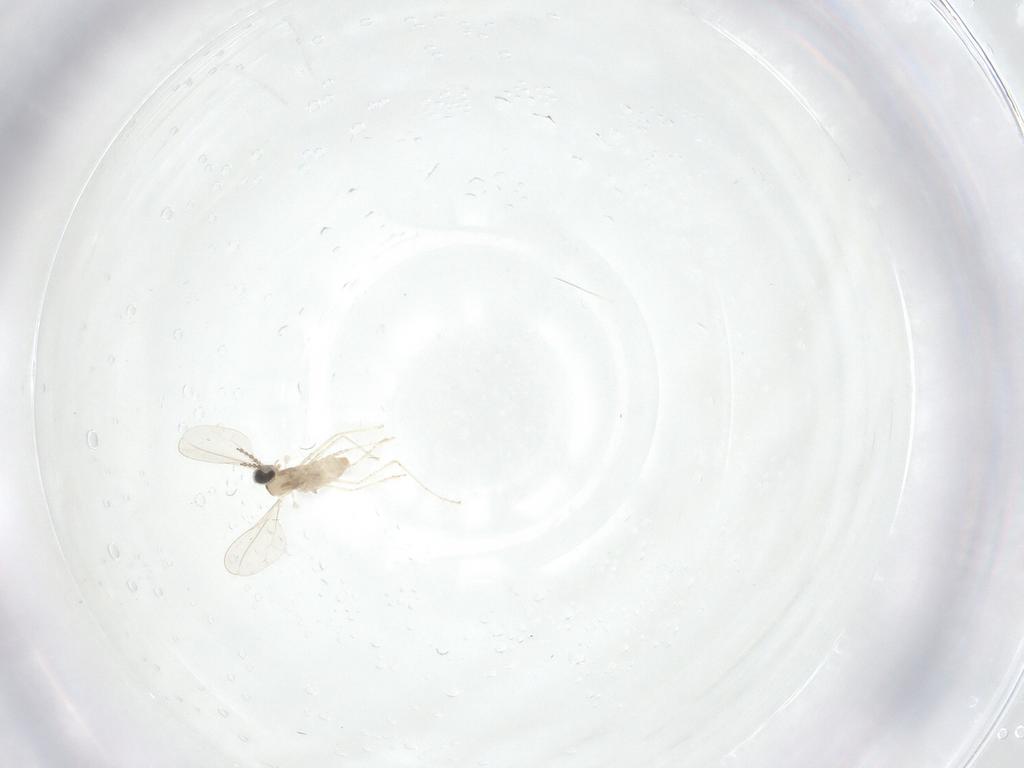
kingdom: Animalia
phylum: Arthropoda
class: Insecta
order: Diptera
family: Cecidomyiidae
